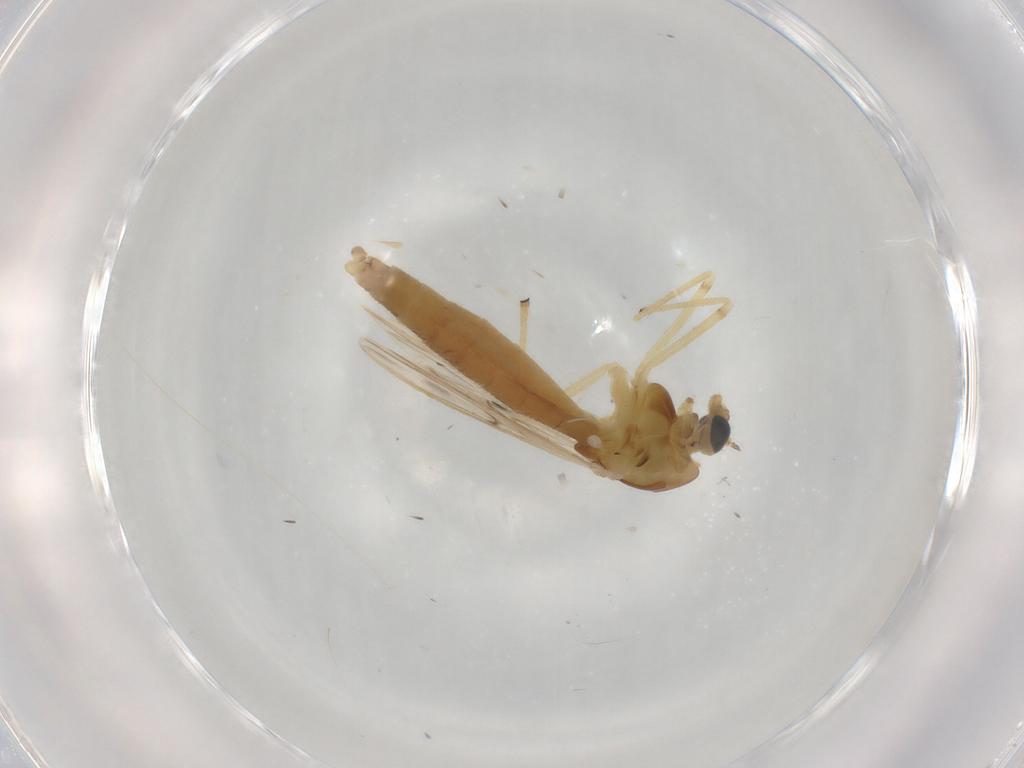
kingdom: Animalia
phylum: Arthropoda
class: Insecta
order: Diptera
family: Chironomidae
